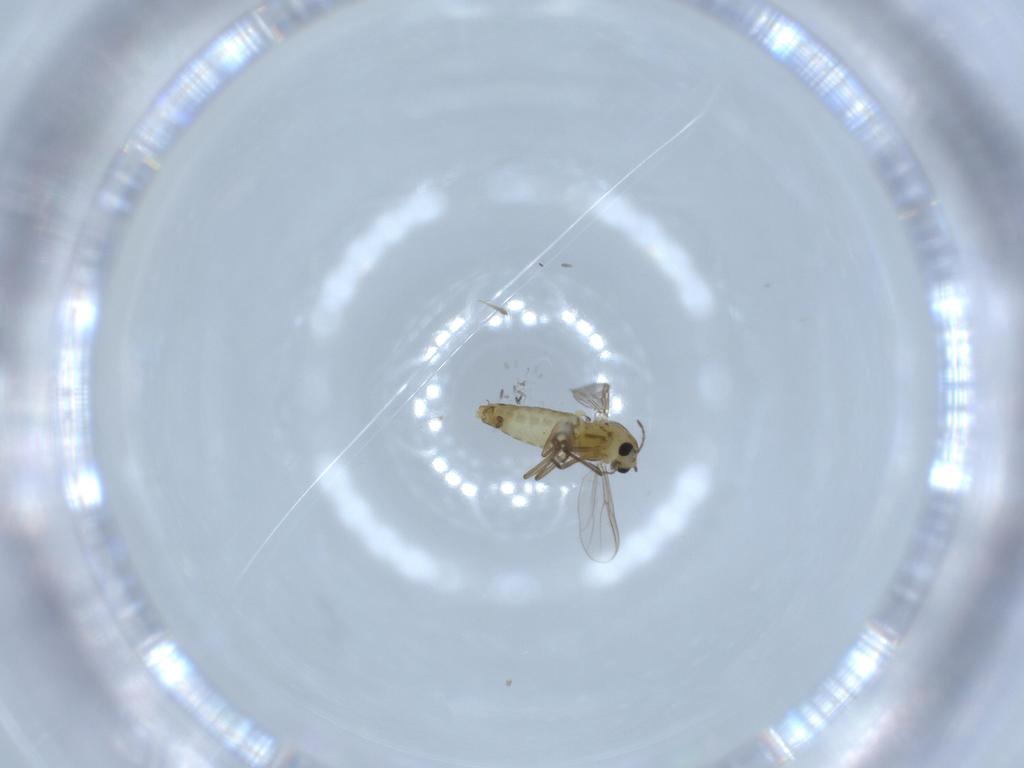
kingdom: Animalia
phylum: Arthropoda
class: Insecta
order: Diptera
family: Chironomidae
